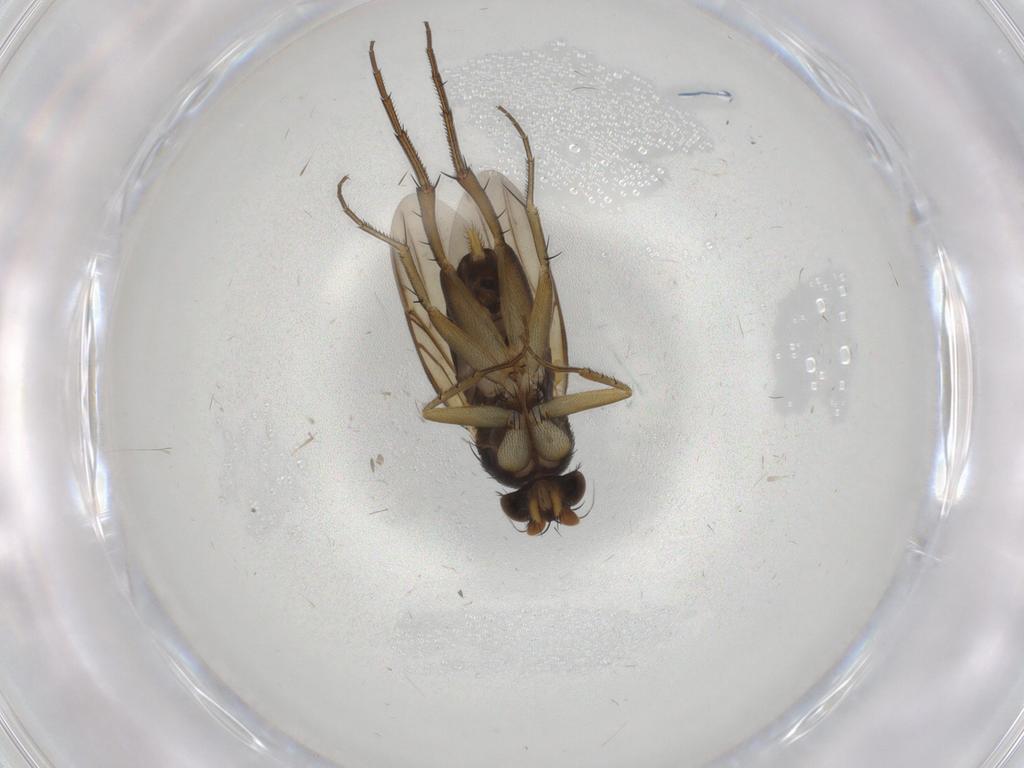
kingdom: Animalia
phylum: Arthropoda
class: Insecta
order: Diptera
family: Phoridae
